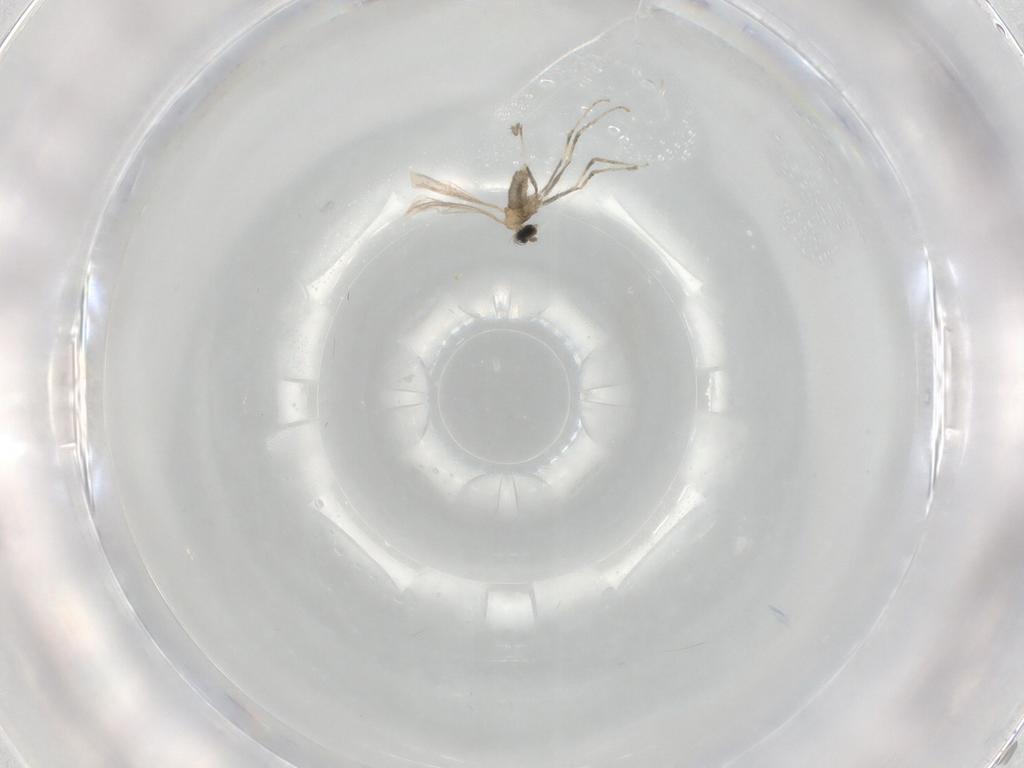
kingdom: Animalia
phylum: Arthropoda
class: Insecta
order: Diptera
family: Cecidomyiidae
